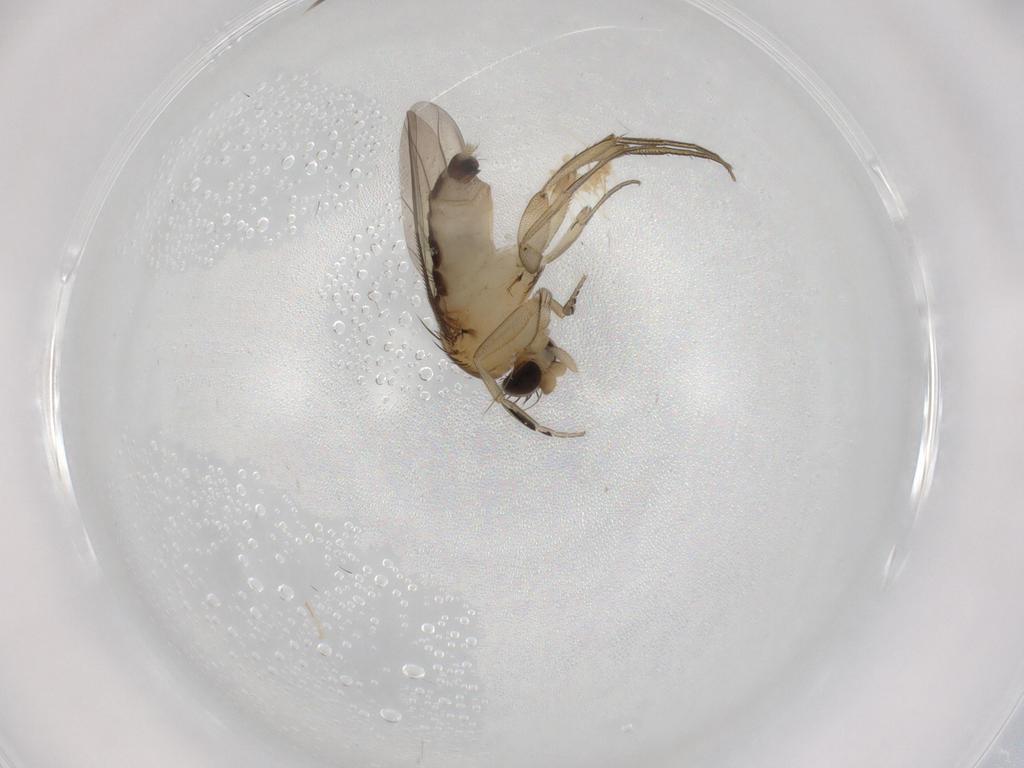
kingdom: Animalia
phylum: Arthropoda
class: Insecta
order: Diptera
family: Phoridae
